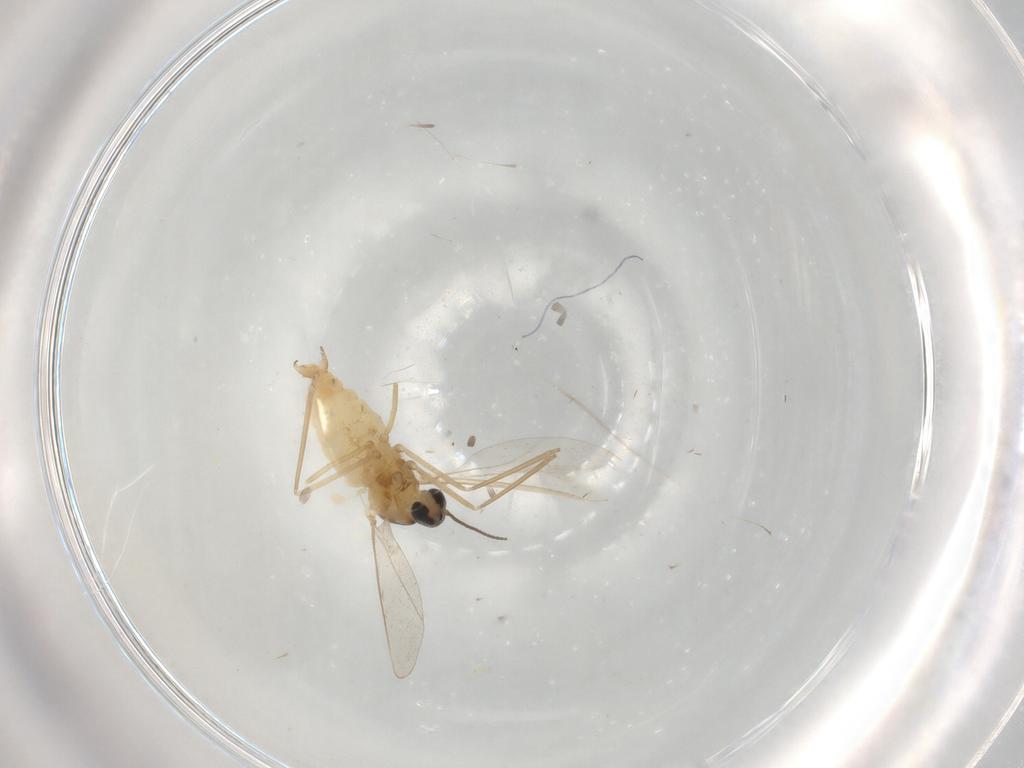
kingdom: Animalia
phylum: Arthropoda
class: Insecta
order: Diptera
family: Cecidomyiidae
